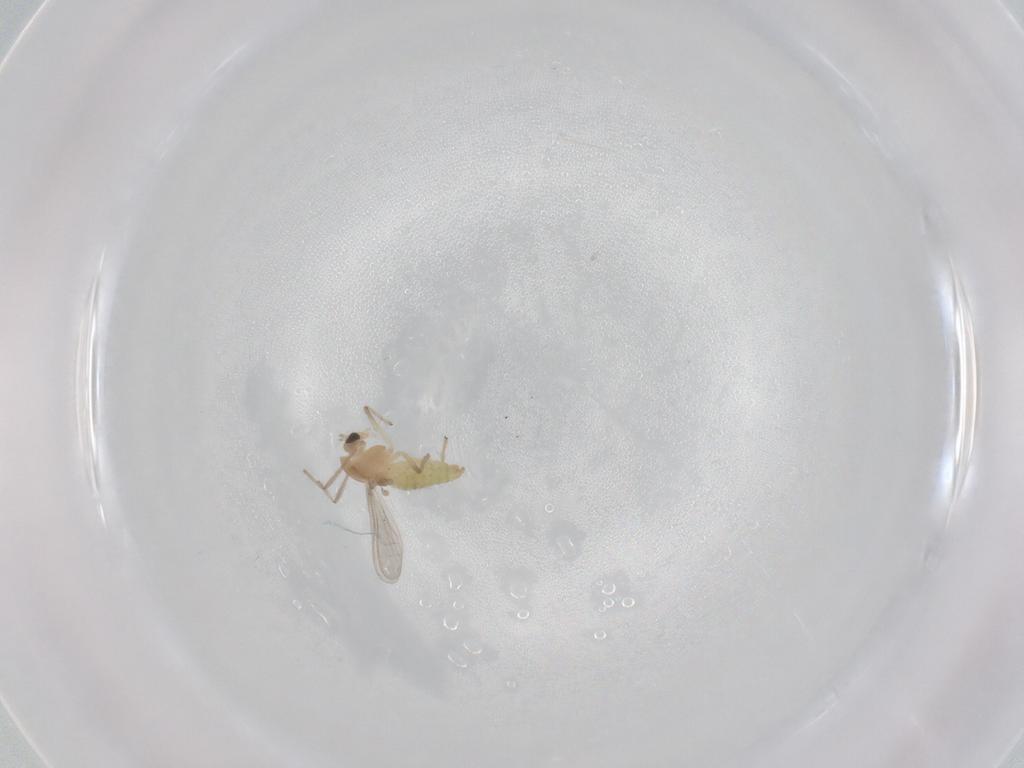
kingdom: Animalia
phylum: Arthropoda
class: Insecta
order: Diptera
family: Chironomidae
